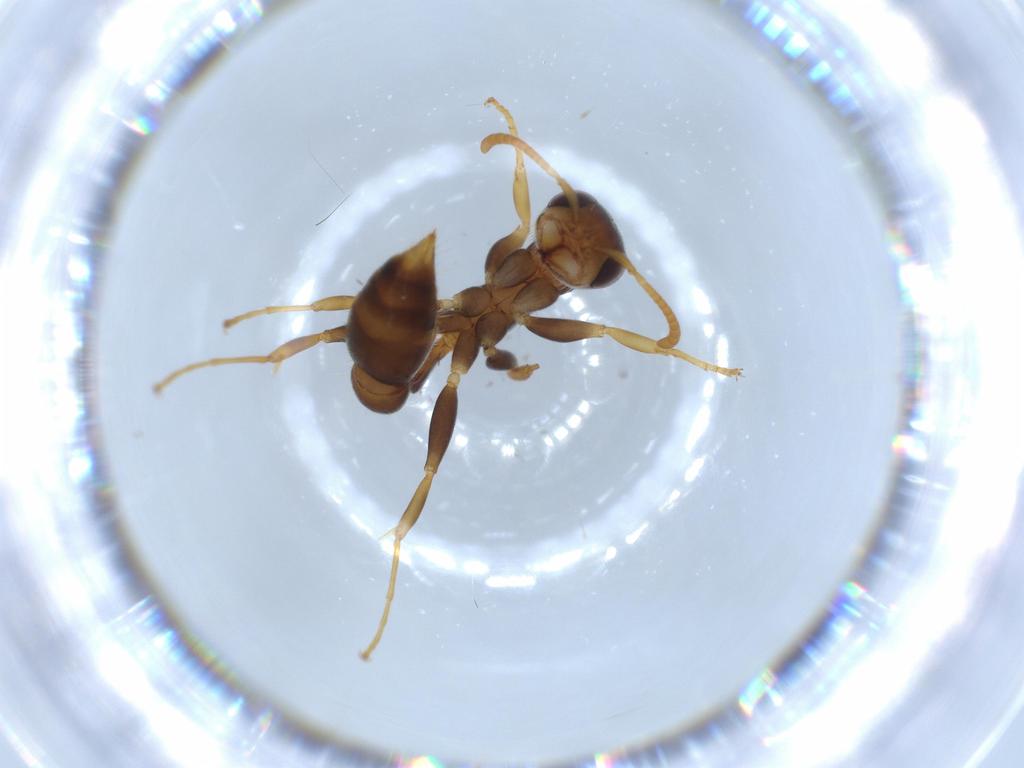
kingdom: Animalia
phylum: Arthropoda
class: Insecta
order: Hymenoptera
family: Formicidae
